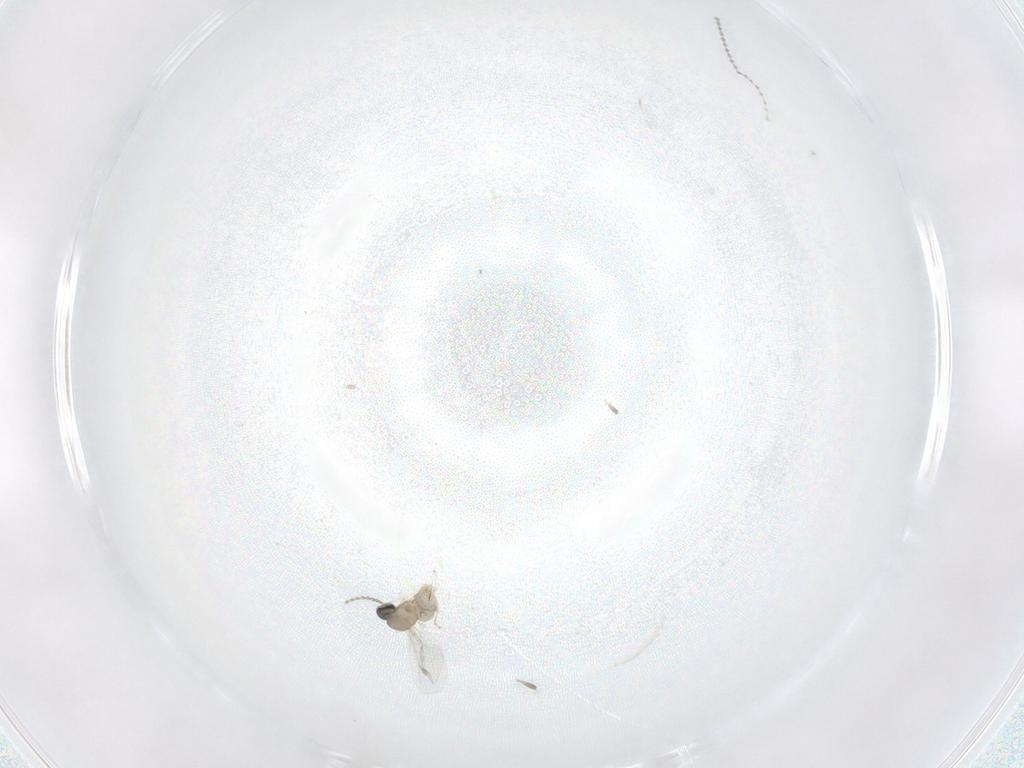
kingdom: Animalia
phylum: Arthropoda
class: Insecta
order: Diptera
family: Cecidomyiidae
